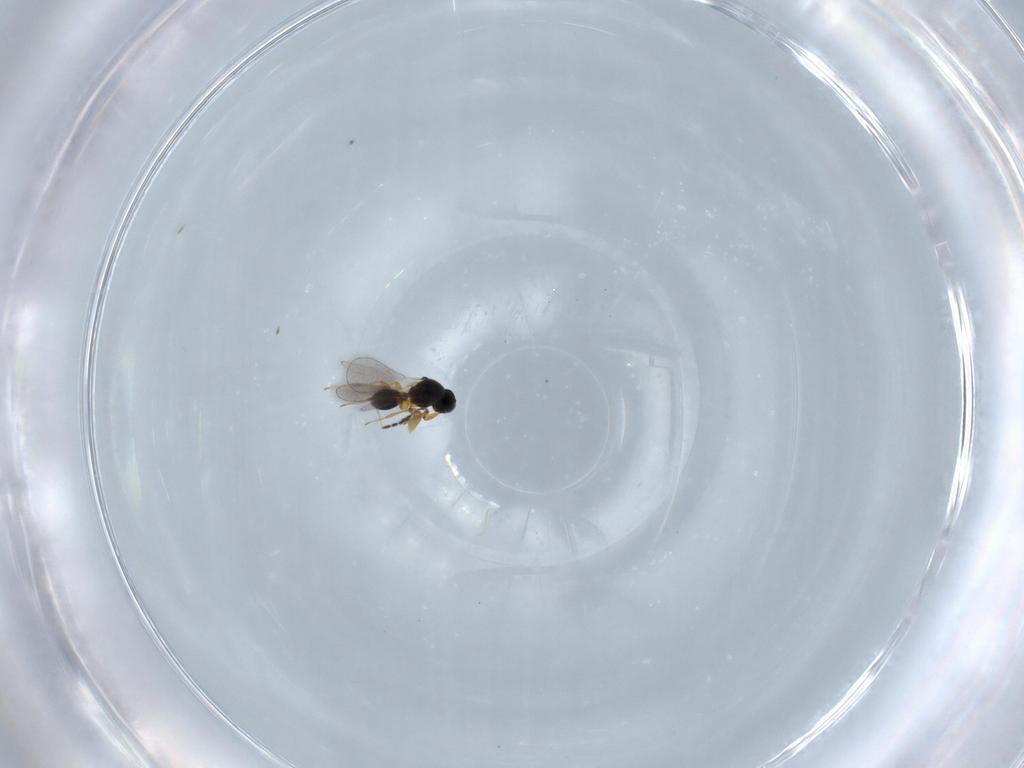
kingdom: Animalia
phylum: Arthropoda
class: Insecta
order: Hymenoptera
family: Platygastridae
